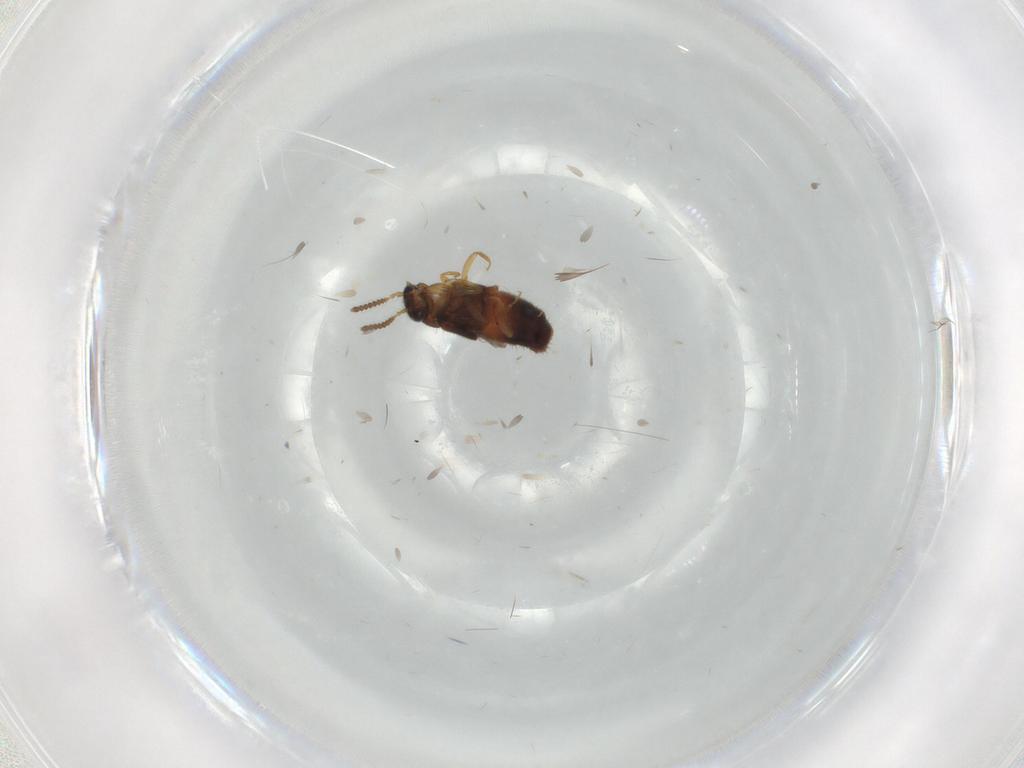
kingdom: Animalia
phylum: Arthropoda
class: Insecta
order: Coleoptera
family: Staphylinidae
